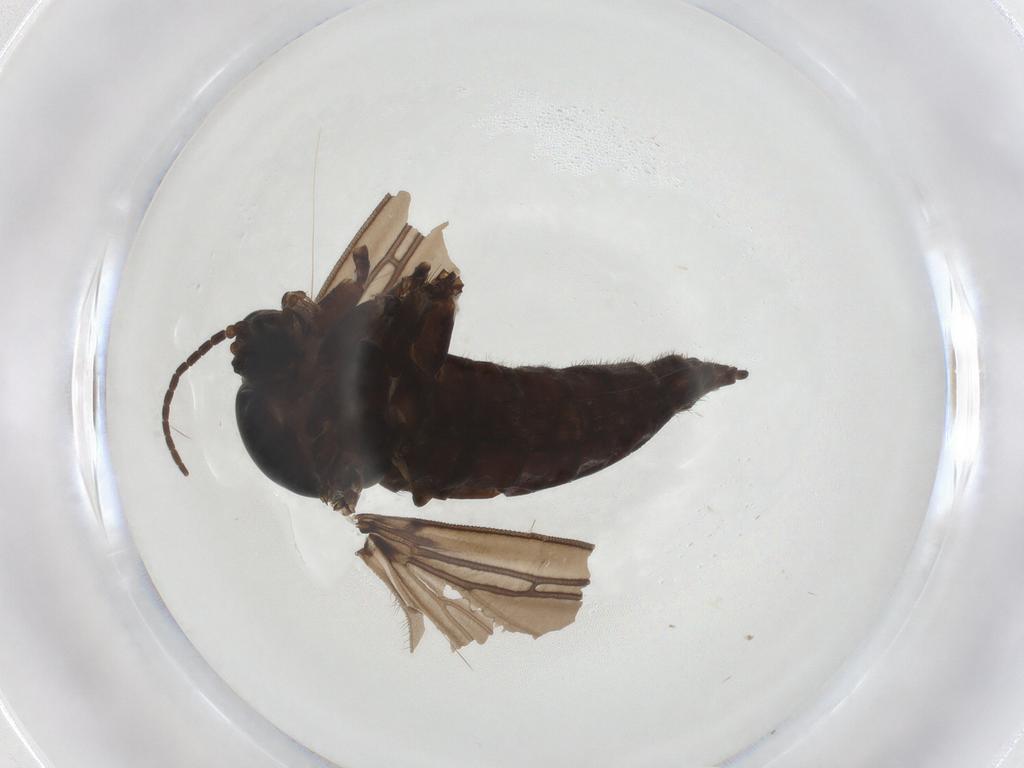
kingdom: Animalia
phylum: Arthropoda
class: Insecta
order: Diptera
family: Sciaridae
